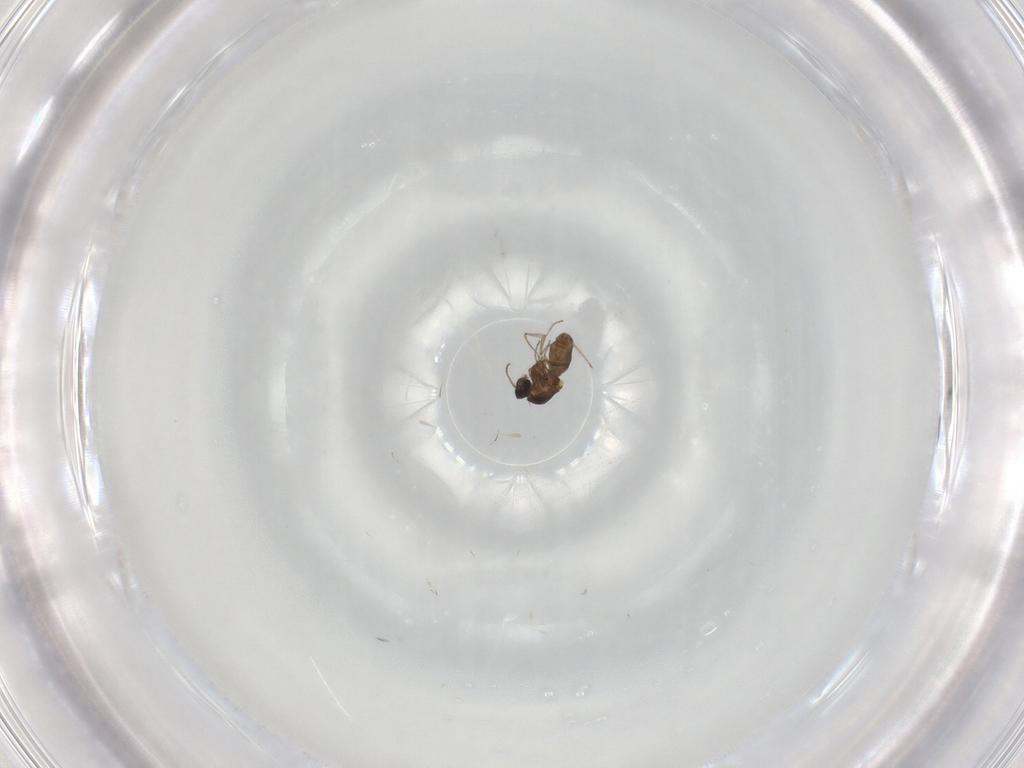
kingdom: Animalia
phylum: Arthropoda
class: Insecta
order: Diptera
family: Ceratopogonidae
